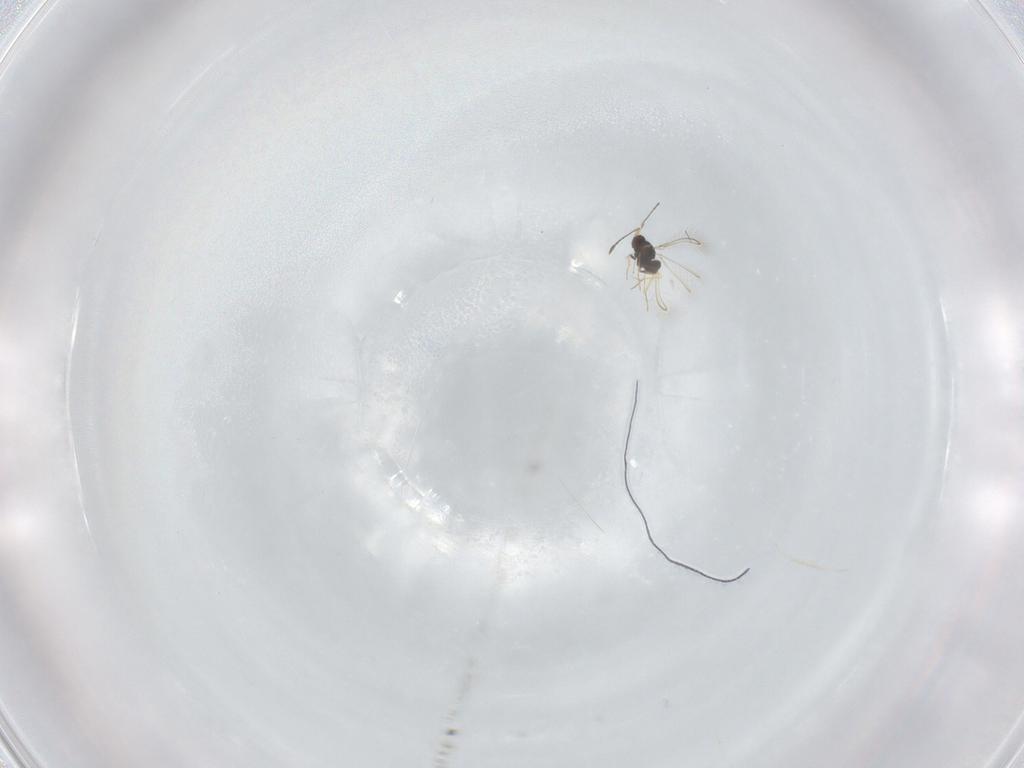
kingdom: Animalia
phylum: Arthropoda
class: Insecta
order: Hymenoptera
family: Mymaridae
